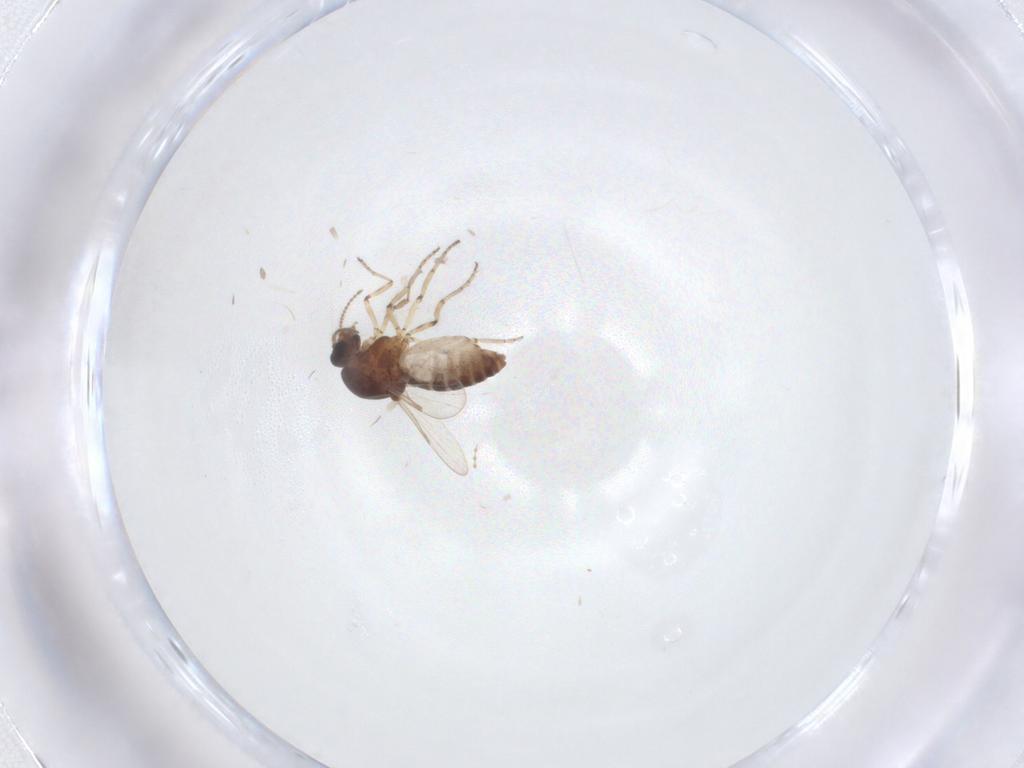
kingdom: Animalia
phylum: Arthropoda
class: Insecta
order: Diptera
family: Ceratopogonidae
